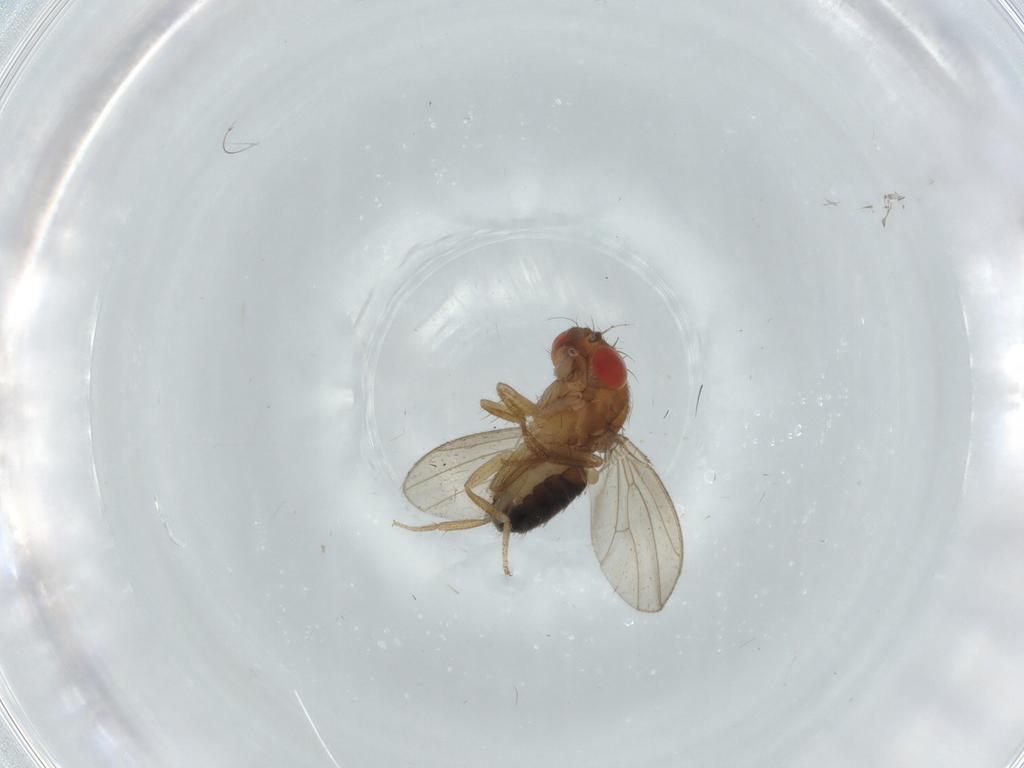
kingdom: Animalia
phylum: Arthropoda
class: Insecta
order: Diptera
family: Drosophilidae
